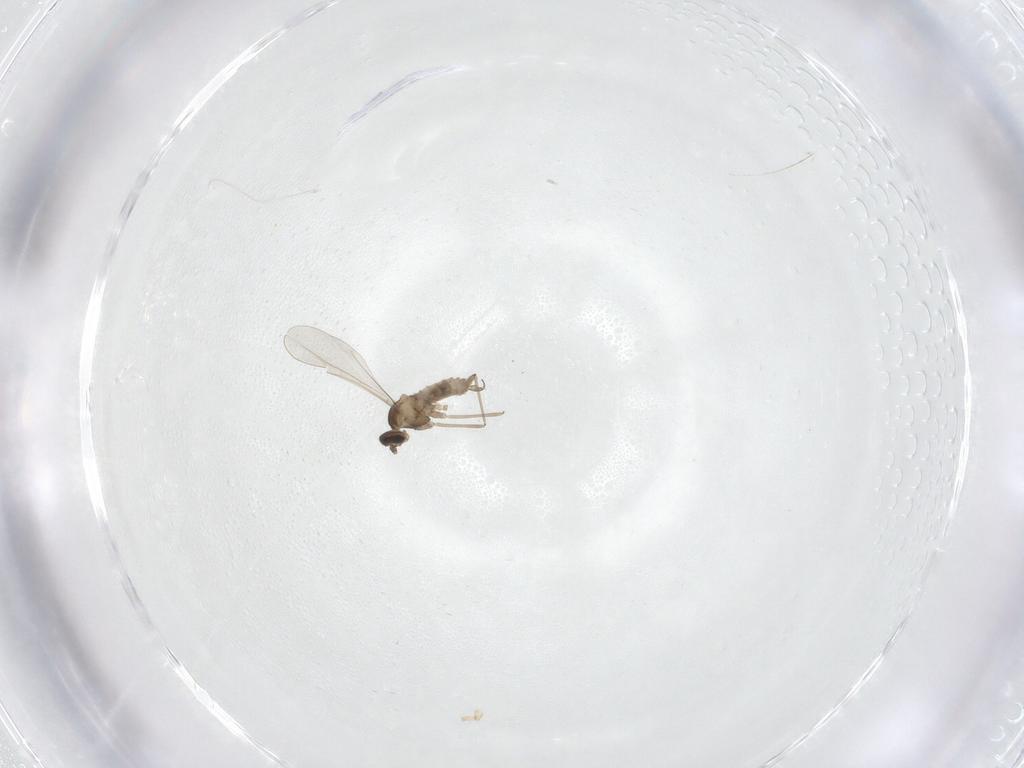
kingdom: Animalia
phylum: Arthropoda
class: Insecta
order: Diptera
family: Cecidomyiidae
